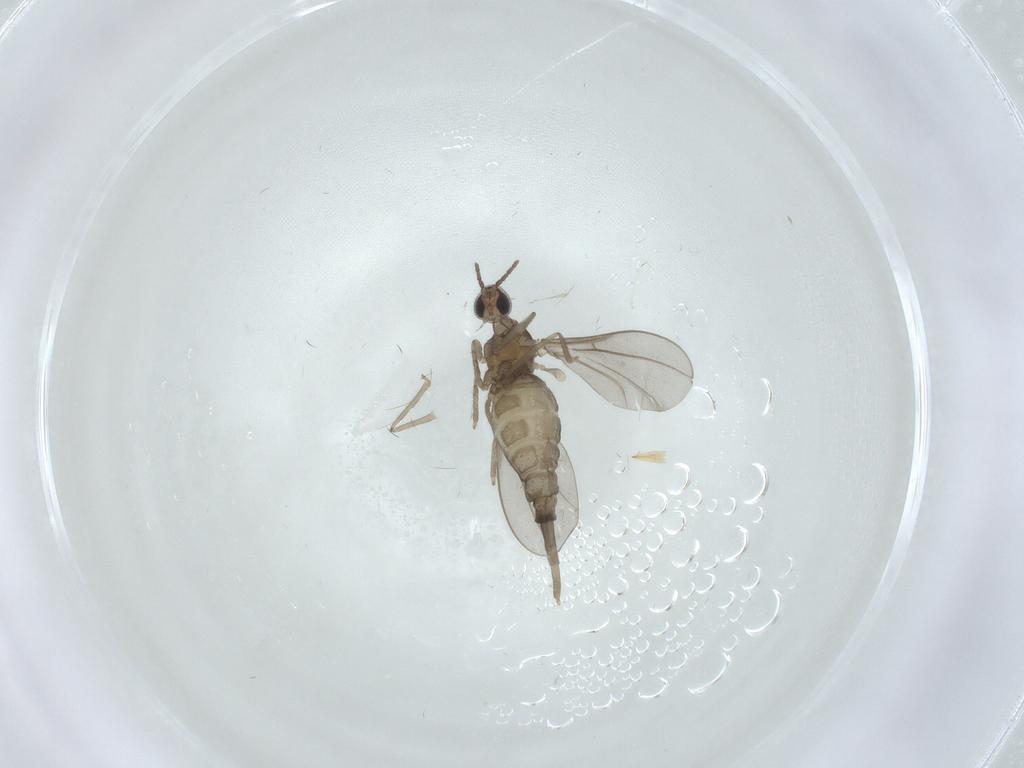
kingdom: Animalia
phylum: Arthropoda
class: Insecta
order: Diptera
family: Cecidomyiidae
